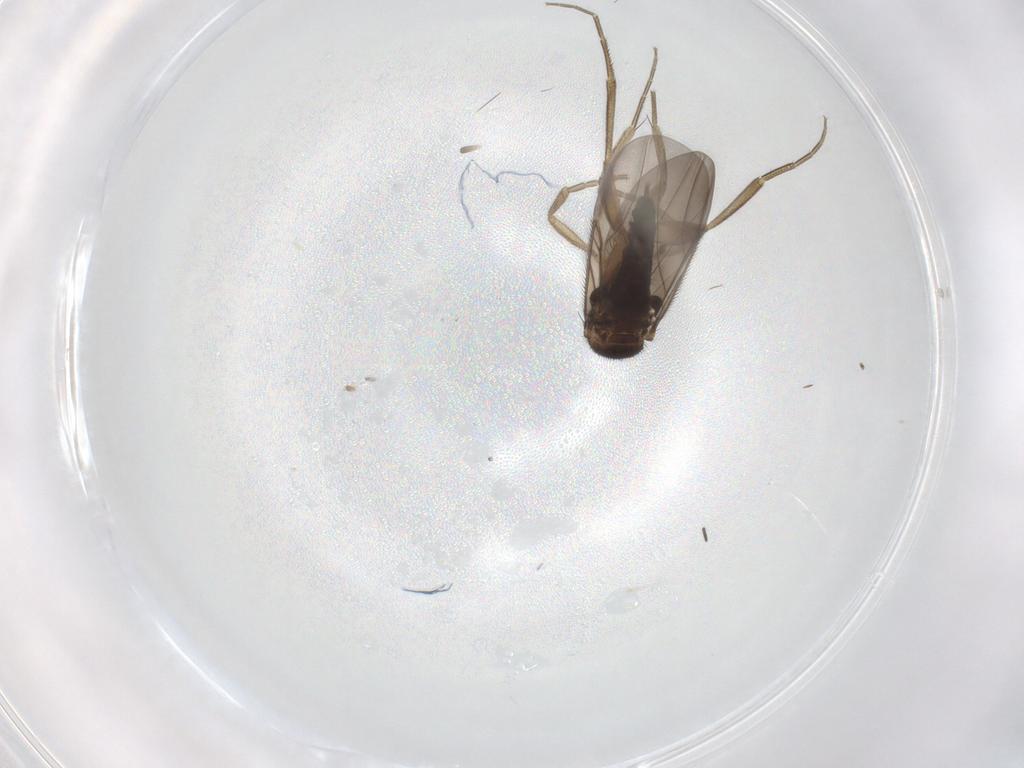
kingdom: Animalia
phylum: Arthropoda
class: Insecta
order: Diptera
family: Phoridae
